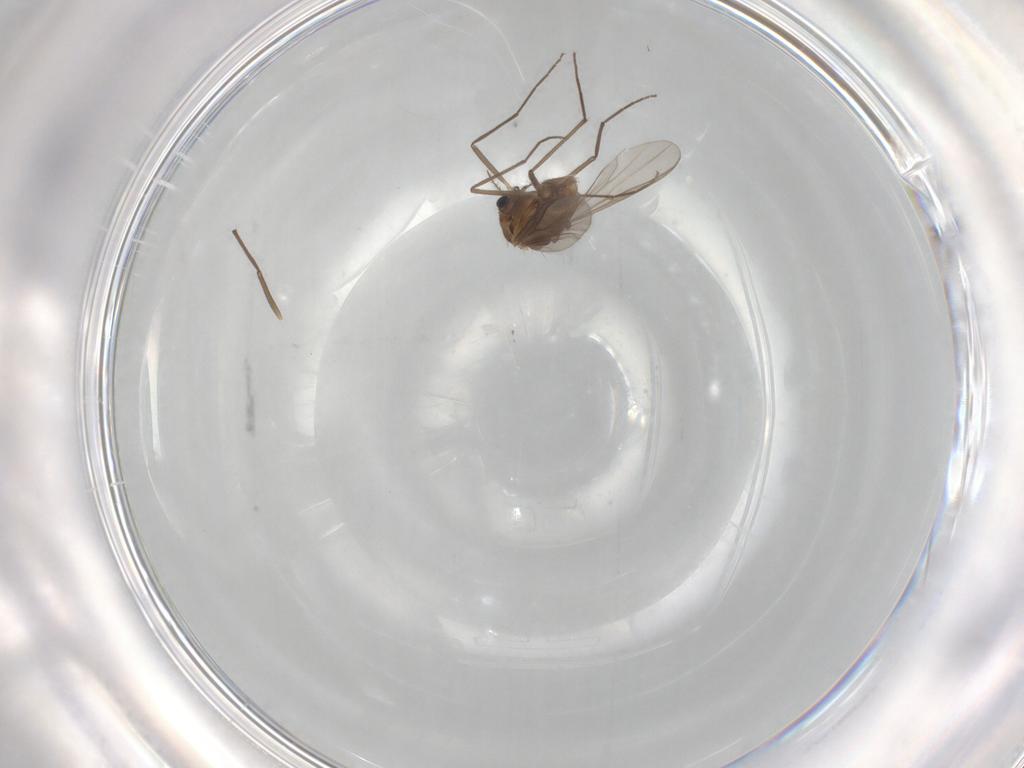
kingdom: Animalia
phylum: Arthropoda
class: Insecta
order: Diptera
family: Chironomidae
